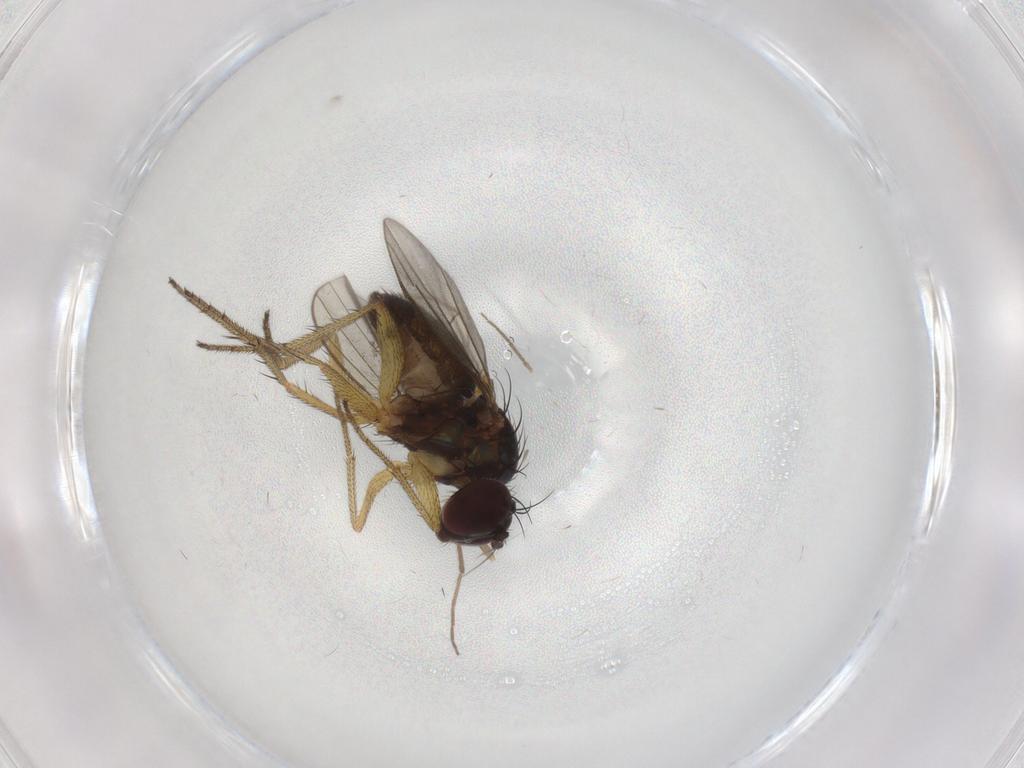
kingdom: Animalia
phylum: Arthropoda
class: Insecta
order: Diptera
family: Chironomidae
